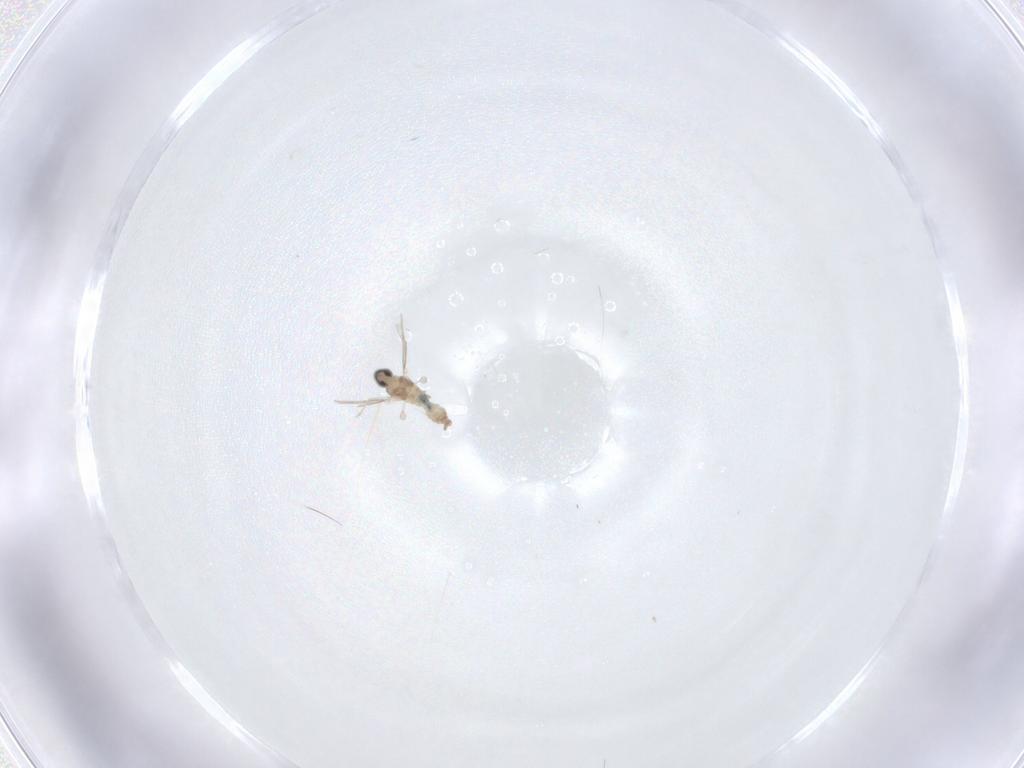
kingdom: Animalia
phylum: Arthropoda
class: Insecta
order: Diptera
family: Cecidomyiidae
